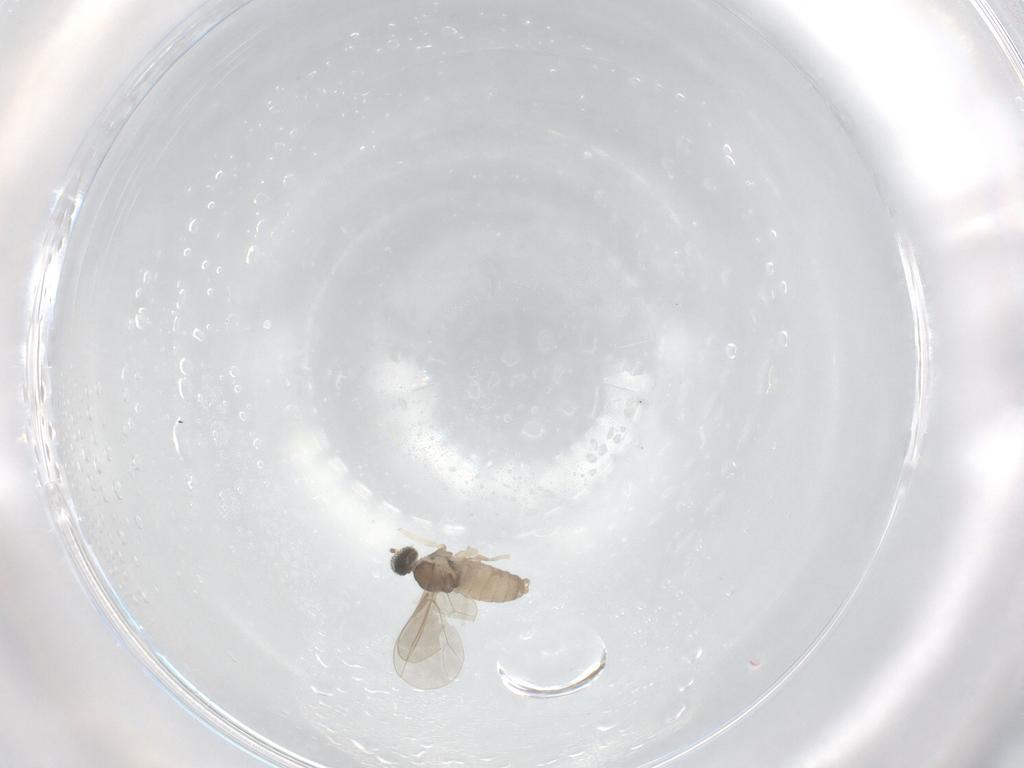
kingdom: Animalia
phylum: Arthropoda
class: Insecta
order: Diptera
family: Cecidomyiidae
